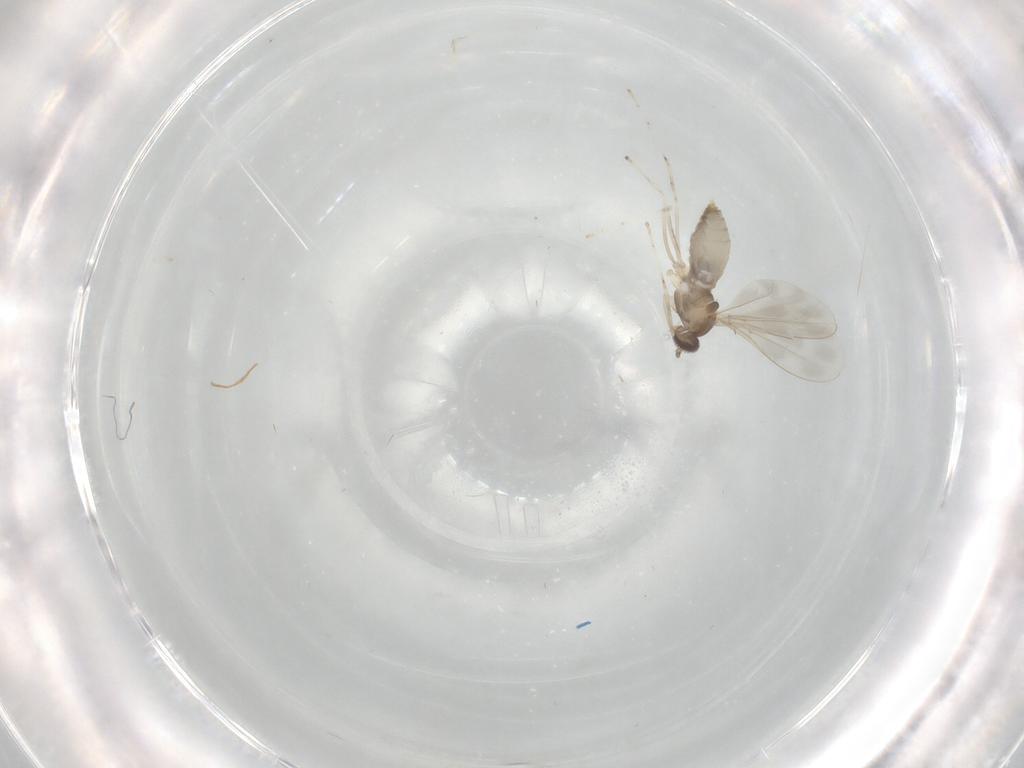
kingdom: Animalia
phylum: Arthropoda
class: Insecta
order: Diptera
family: Cecidomyiidae
